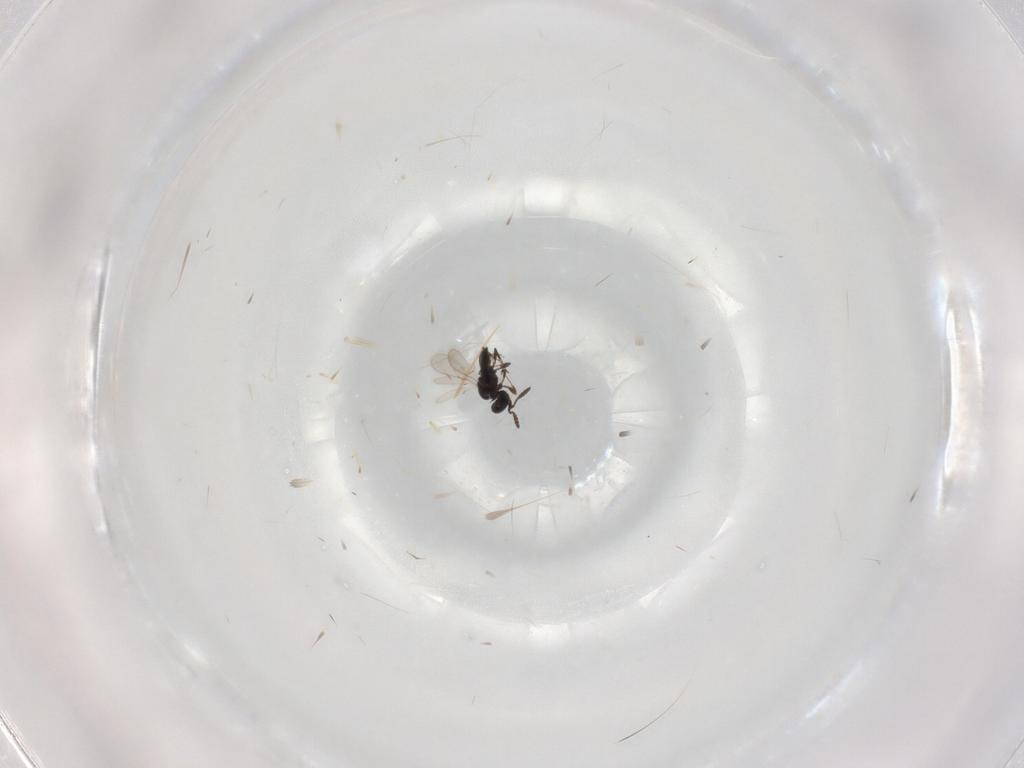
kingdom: Animalia
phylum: Arthropoda
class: Insecta
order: Hymenoptera
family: Scelionidae
